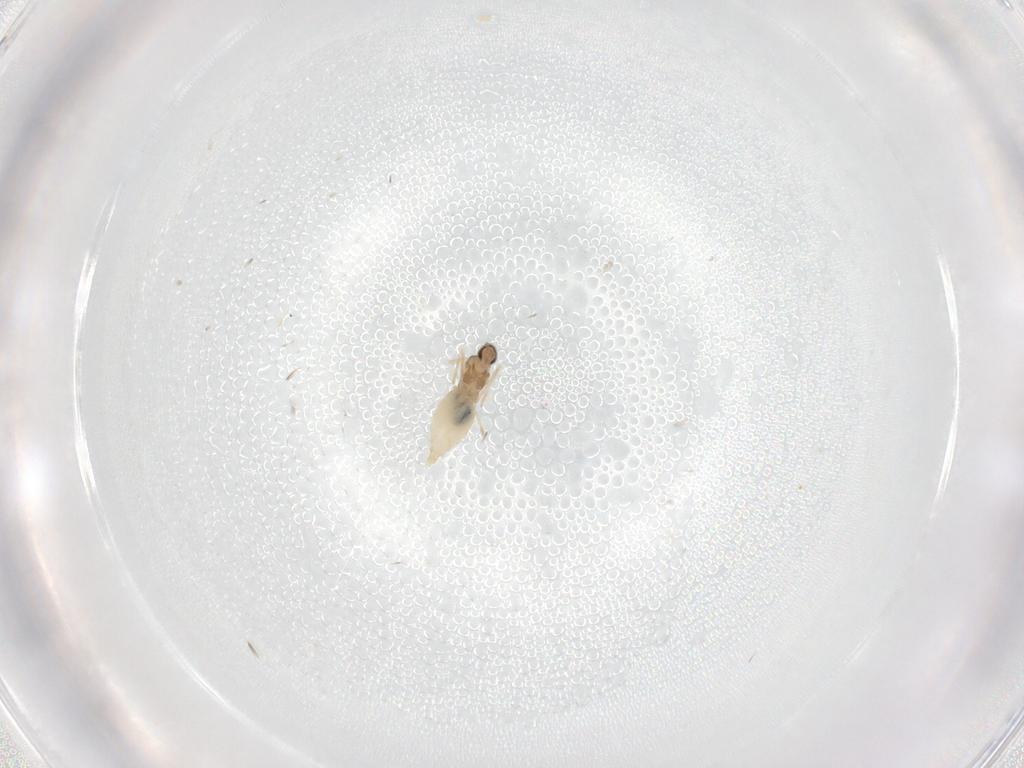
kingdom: Animalia
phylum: Arthropoda
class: Insecta
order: Diptera
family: Cecidomyiidae
